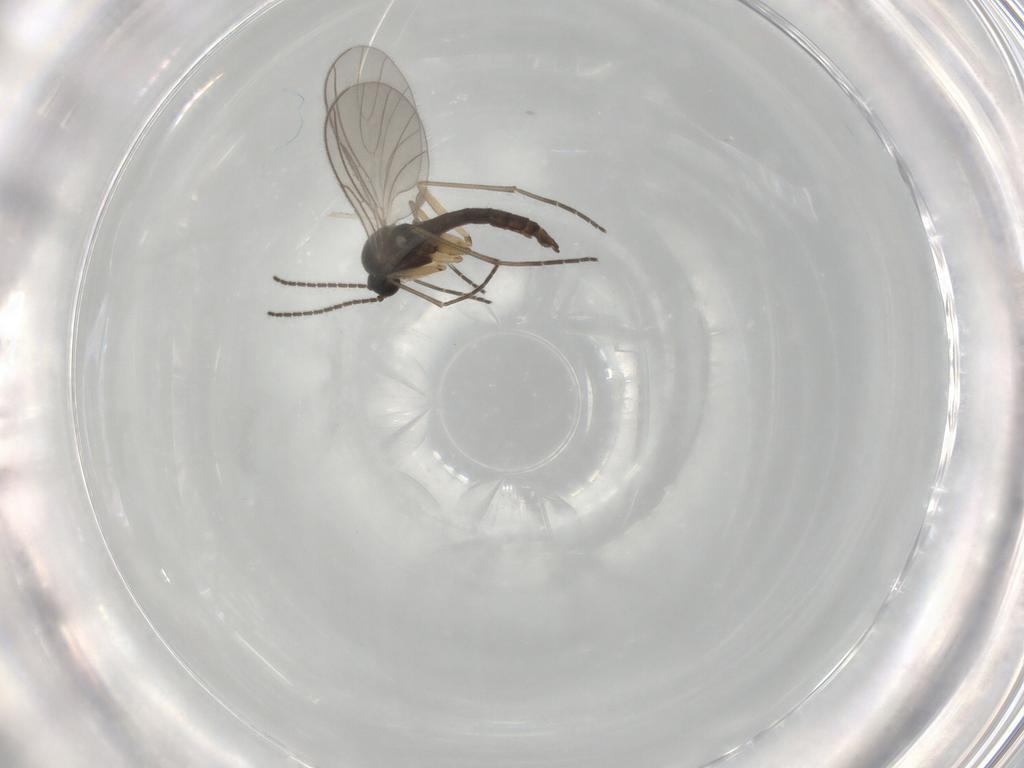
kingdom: Animalia
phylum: Arthropoda
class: Insecta
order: Diptera
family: Sciaridae
